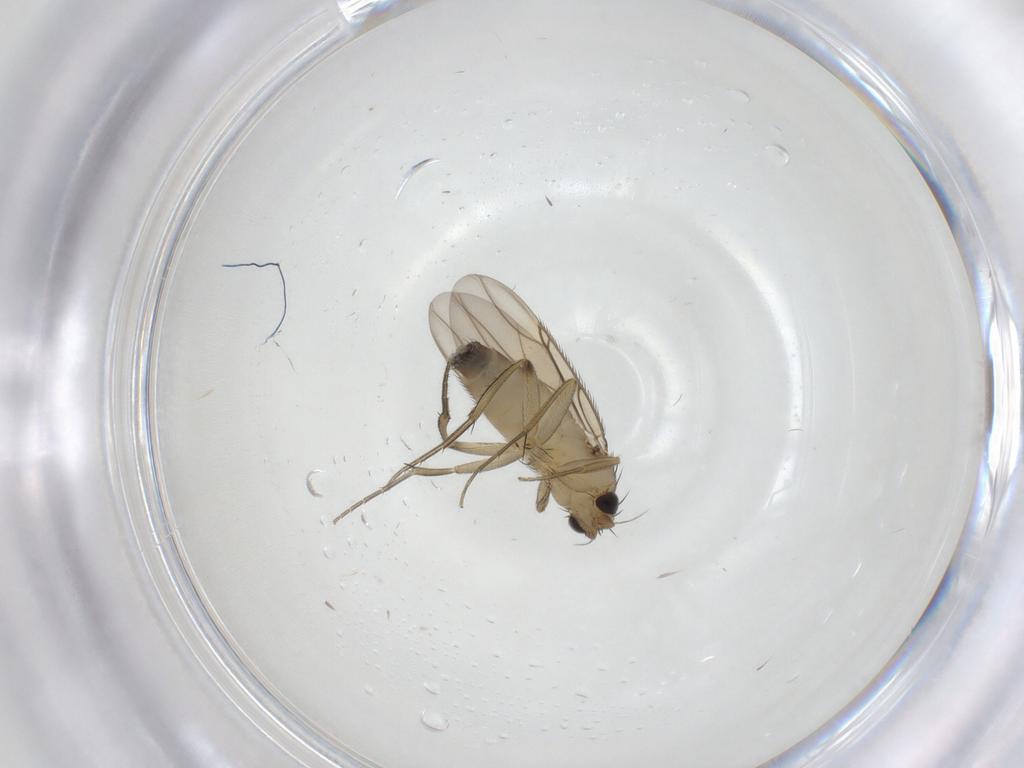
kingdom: Animalia
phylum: Arthropoda
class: Insecta
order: Diptera
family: Phoridae
